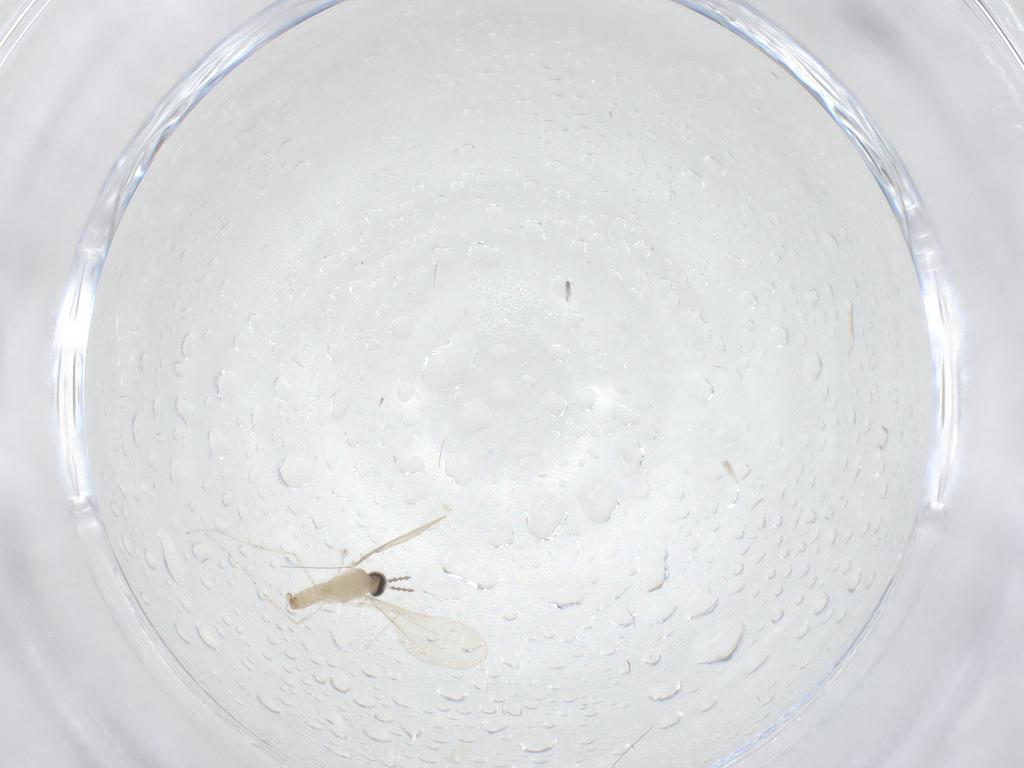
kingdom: Animalia
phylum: Arthropoda
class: Insecta
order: Diptera
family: Cecidomyiidae
